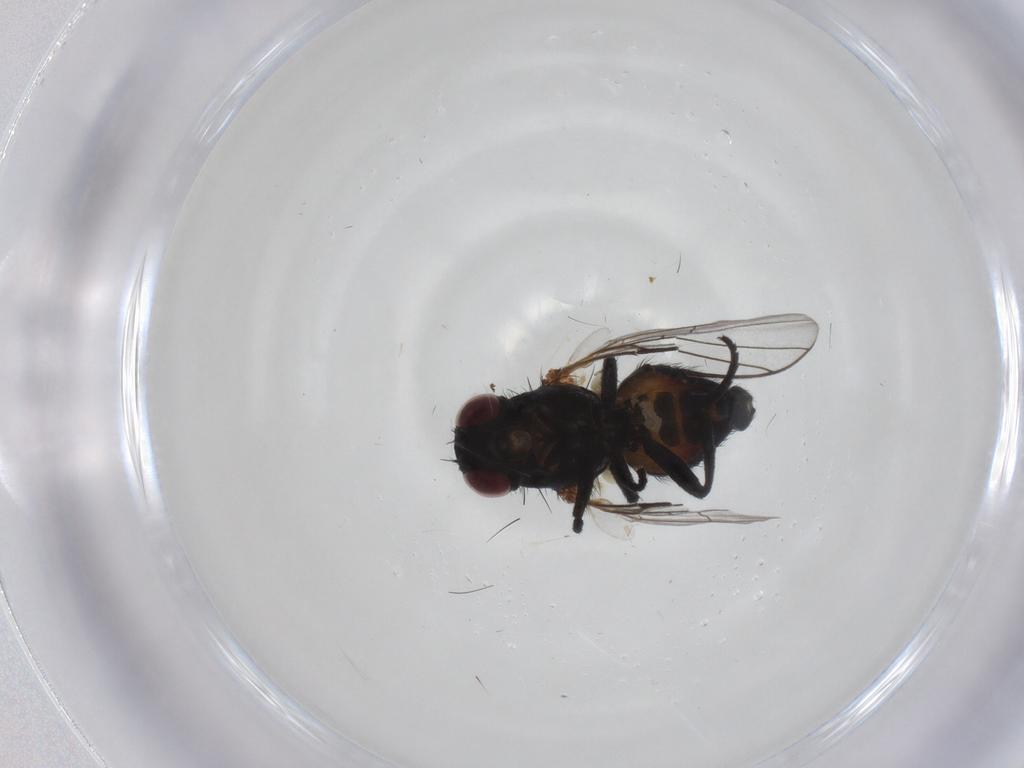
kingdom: Animalia
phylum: Arthropoda
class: Insecta
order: Diptera
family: Agromyzidae
